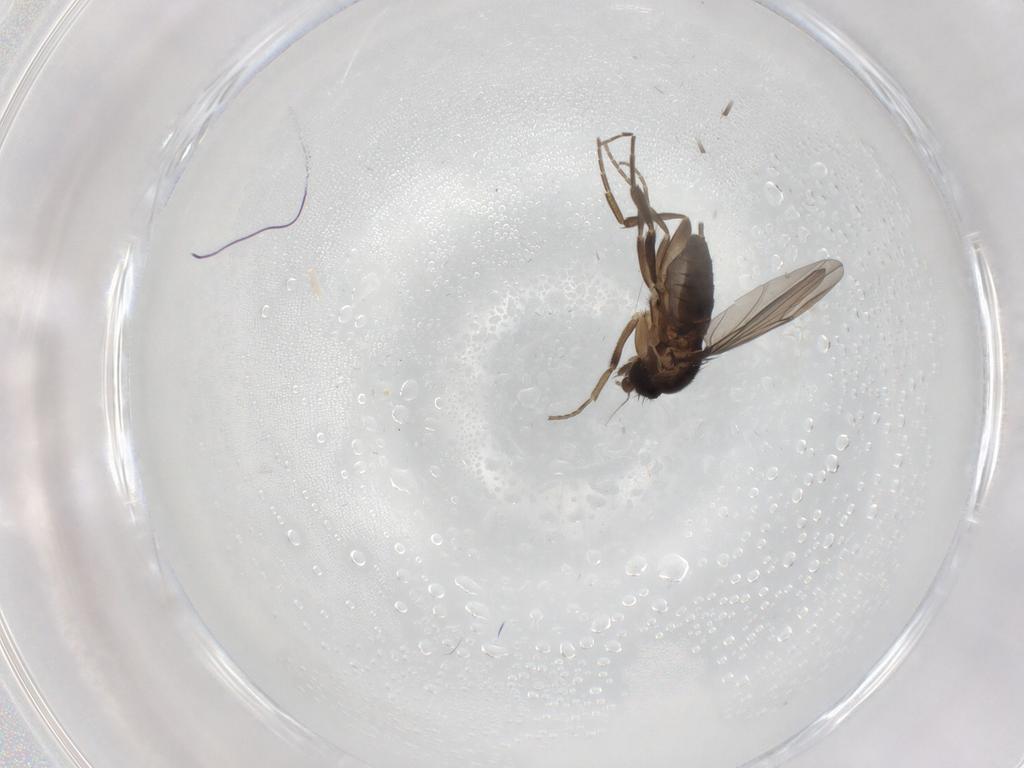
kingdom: Animalia
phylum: Arthropoda
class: Insecta
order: Diptera
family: Phoridae
